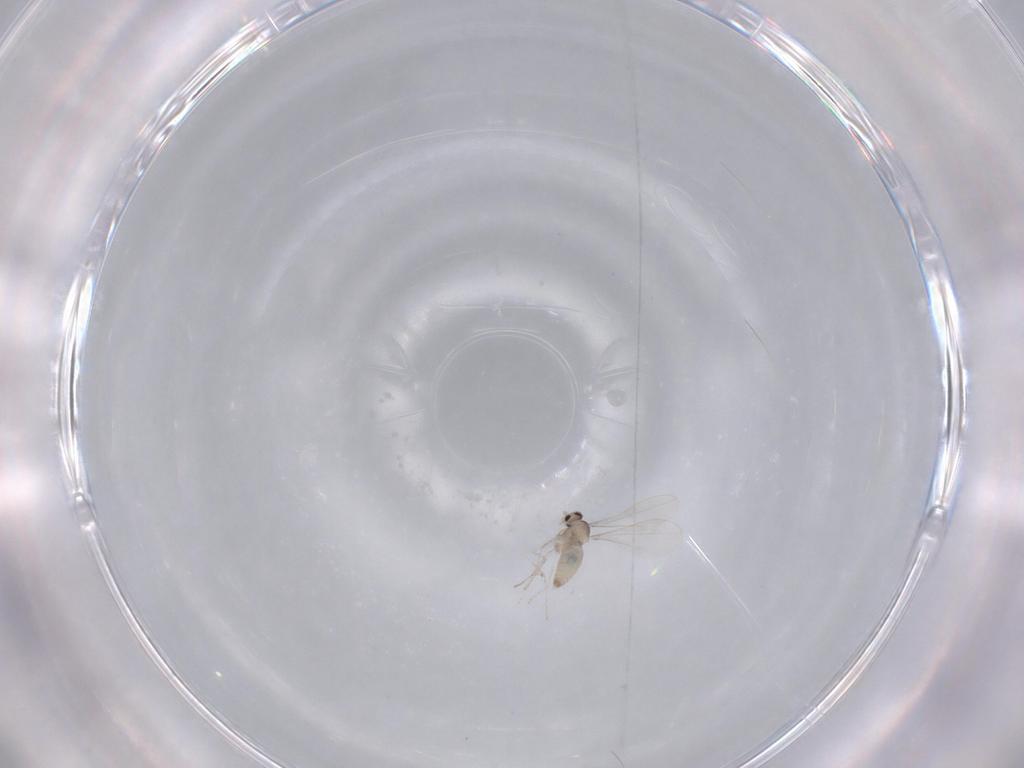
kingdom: Animalia
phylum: Arthropoda
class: Insecta
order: Diptera
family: Cecidomyiidae
